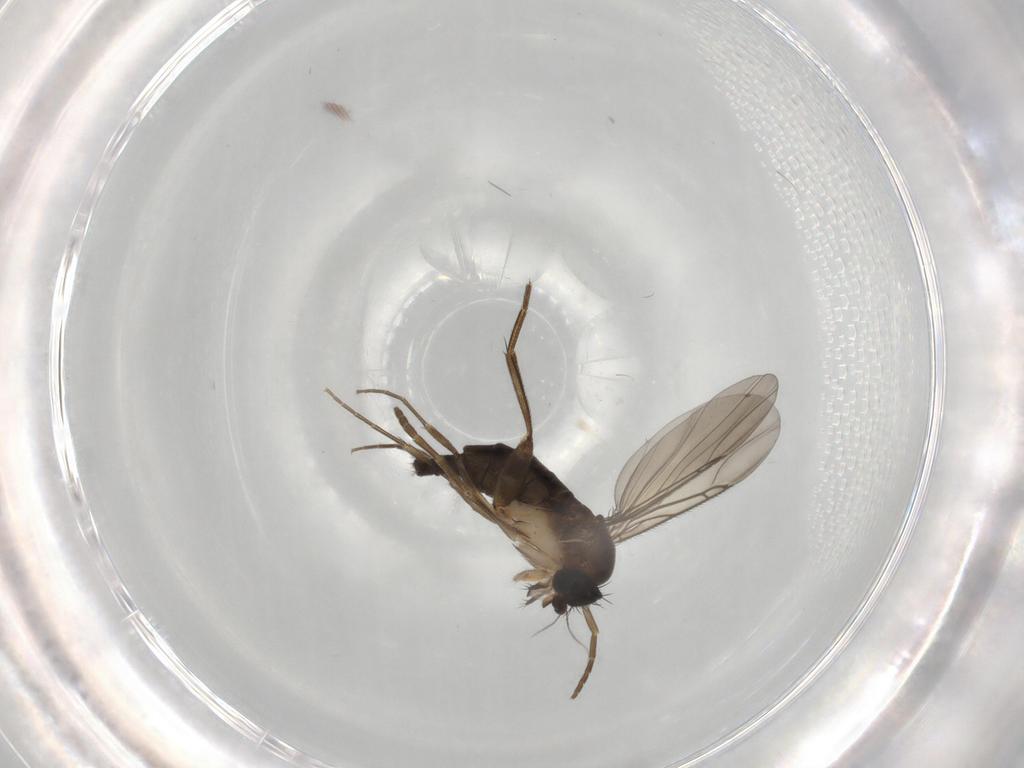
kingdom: Animalia
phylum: Arthropoda
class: Insecta
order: Diptera
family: Phoridae
